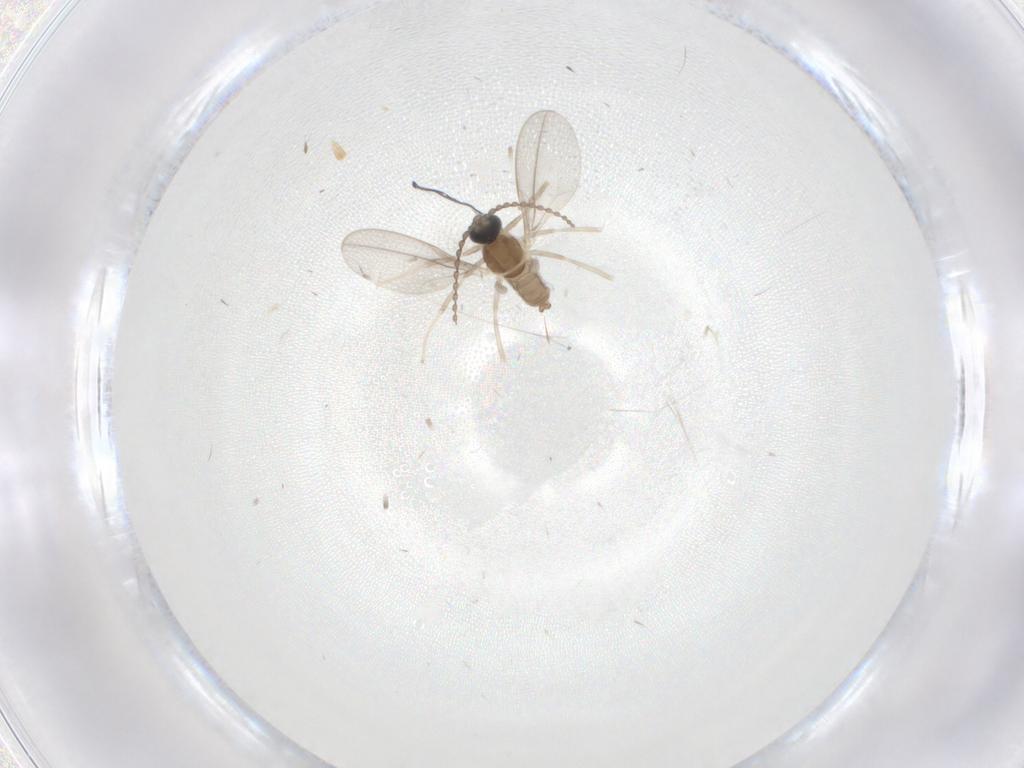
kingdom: Animalia
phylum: Arthropoda
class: Insecta
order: Diptera
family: Cecidomyiidae
